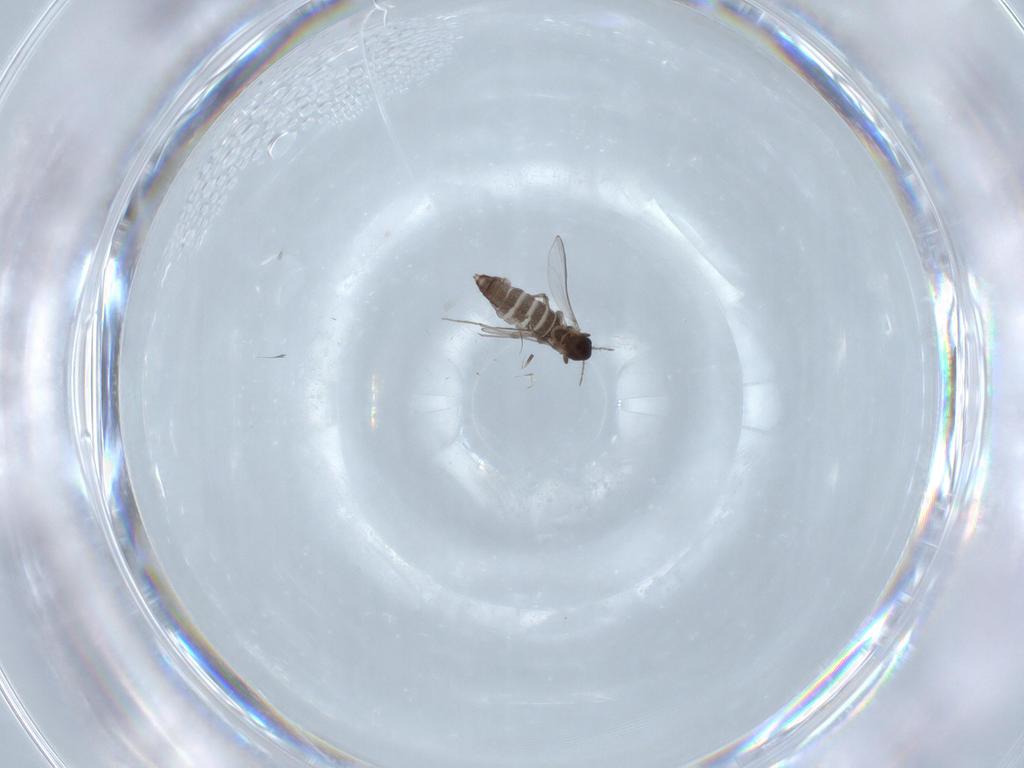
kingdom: Animalia
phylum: Arthropoda
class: Insecta
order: Diptera
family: Chironomidae
